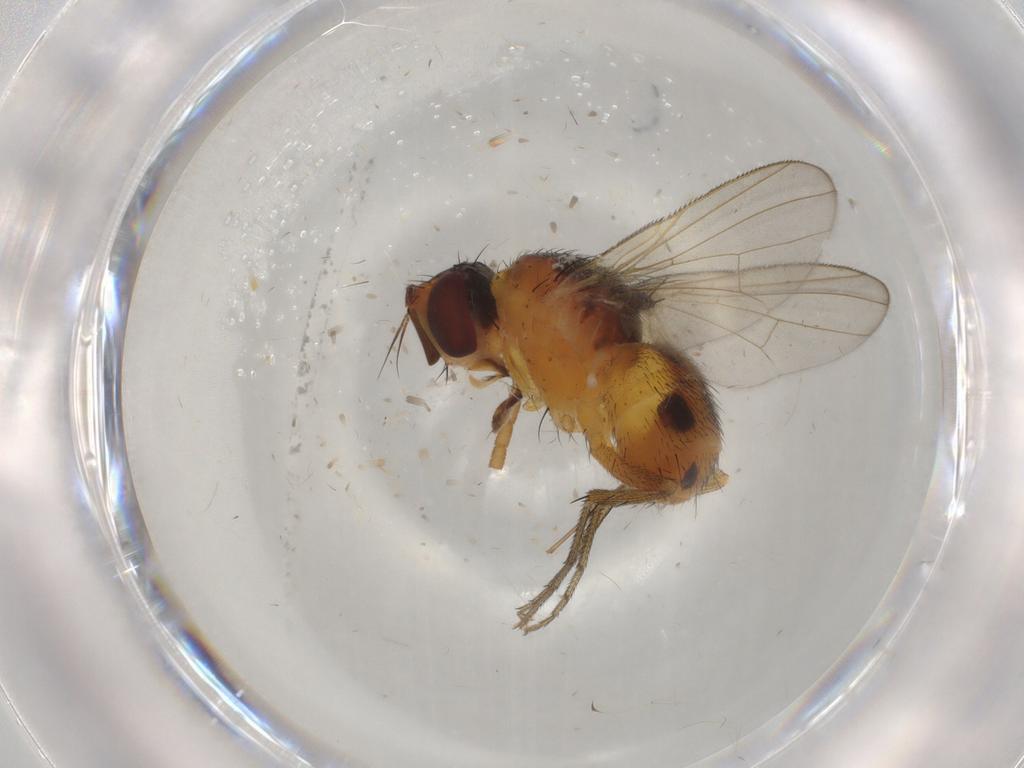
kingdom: Animalia
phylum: Arthropoda
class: Insecta
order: Diptera
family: Muscidae
